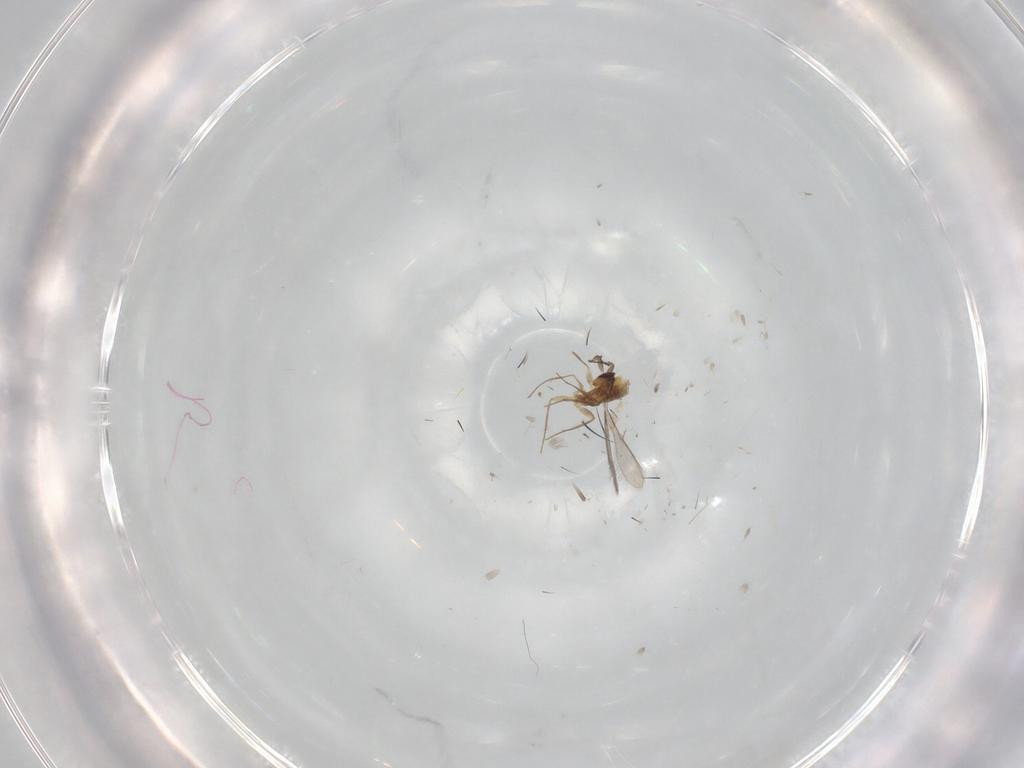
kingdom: Animalia
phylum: Arthropoda
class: Insecta
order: Hymenoptera
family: Mymaridae
